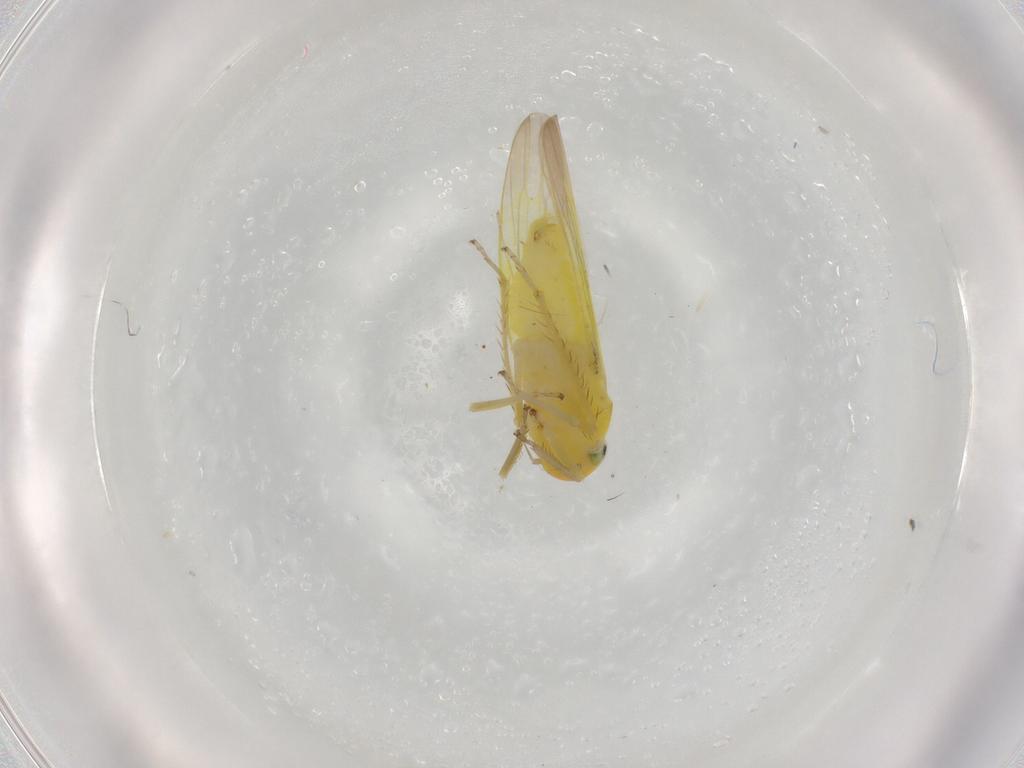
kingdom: Animalia
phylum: Arthropoda
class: Insecta
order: Hemiptera
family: Cicadellidae
